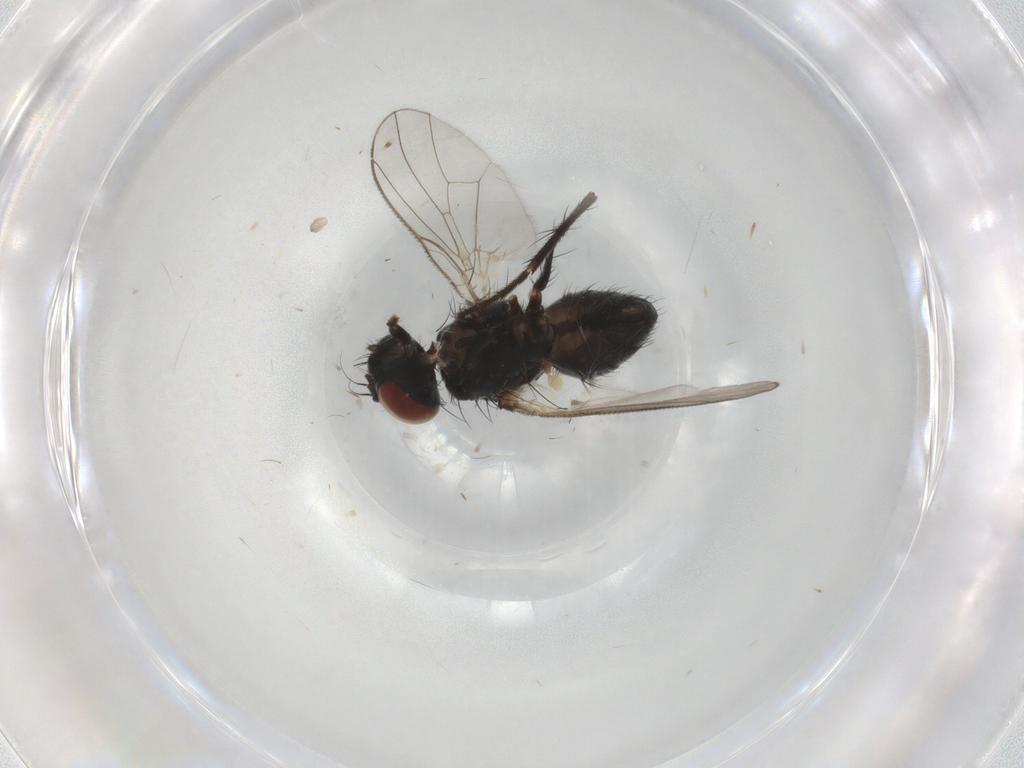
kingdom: Animalia
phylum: Arthropoda
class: Insecta
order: Diptera
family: Muscidae
